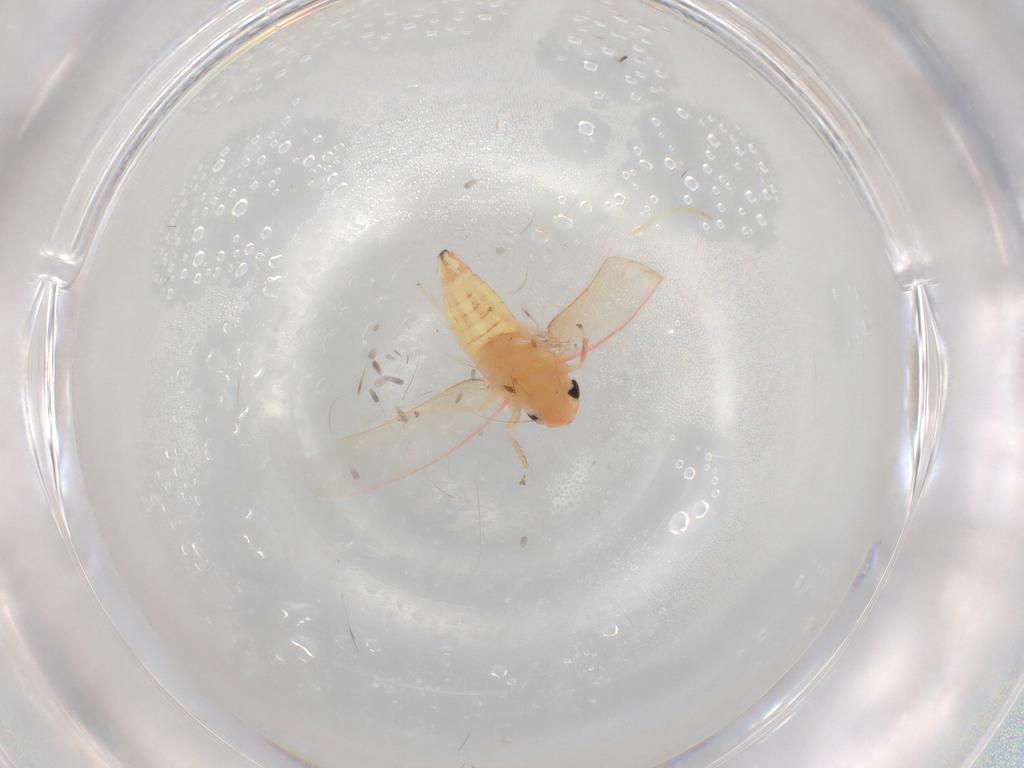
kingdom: Animalia
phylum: Arthropoda
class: Insecta
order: Hemiptera
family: Cicadellidae
